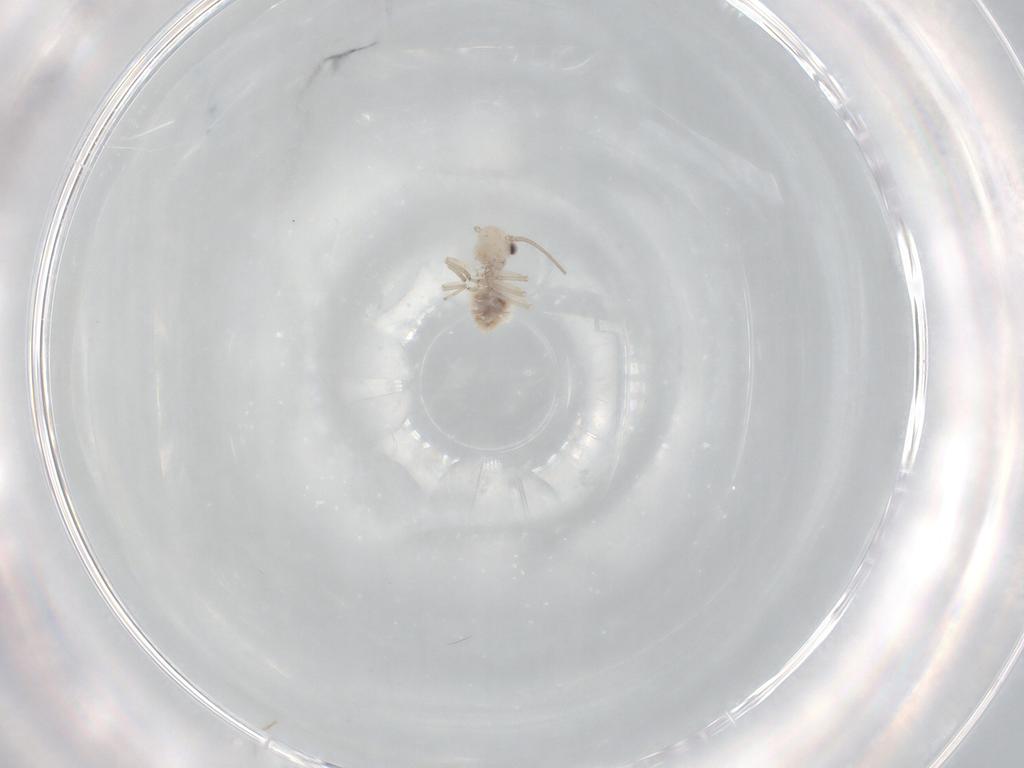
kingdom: Animalia
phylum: Arthropoda
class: Insecta
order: Psocodea
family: Caeciliusidae
